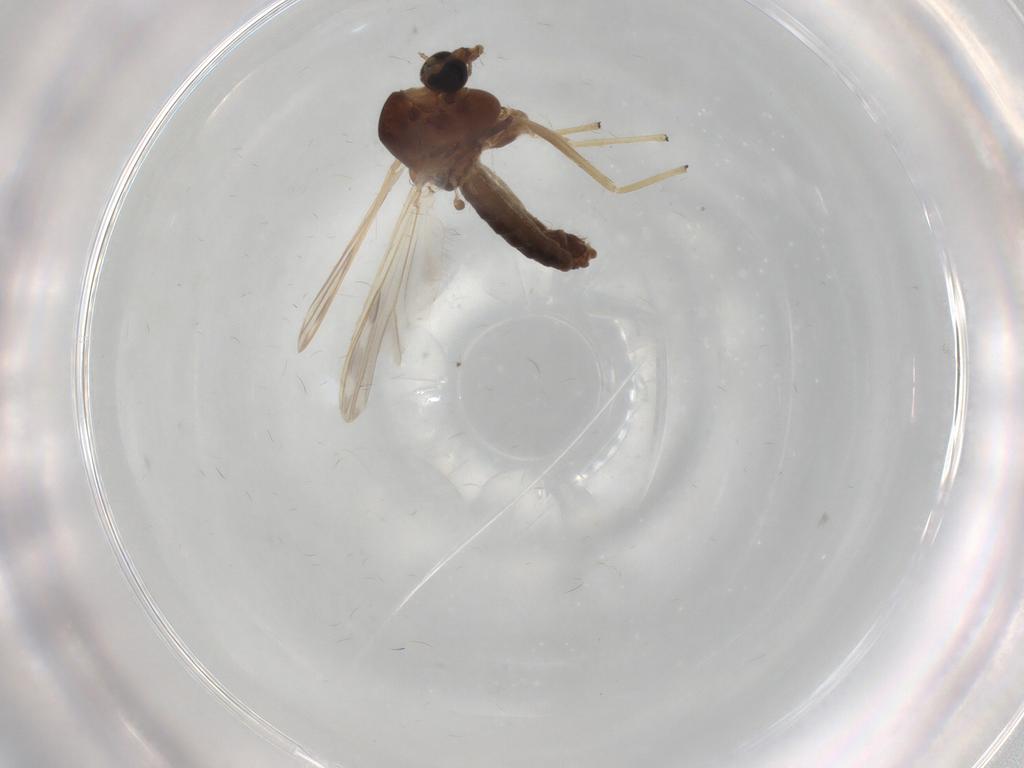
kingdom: Animalia
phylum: Arthropoda
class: Insecta
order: Diptera
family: Chironomidae
